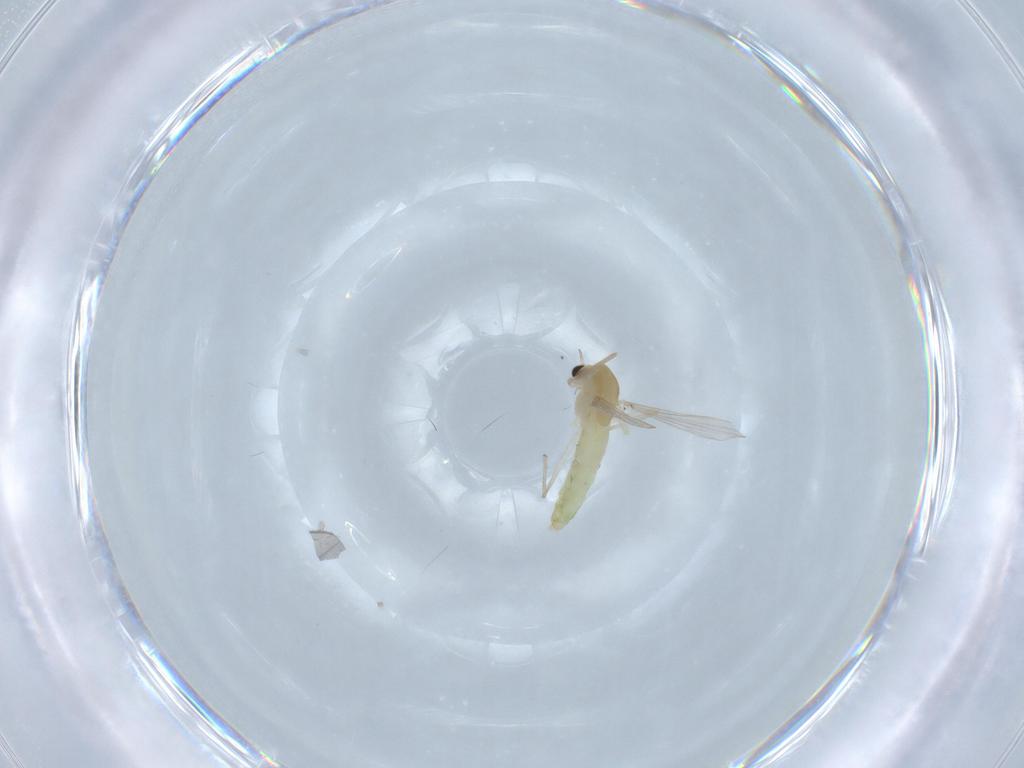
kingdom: Animalia
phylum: Arthropoda
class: Insecta
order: Diptera
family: Chironomidae
